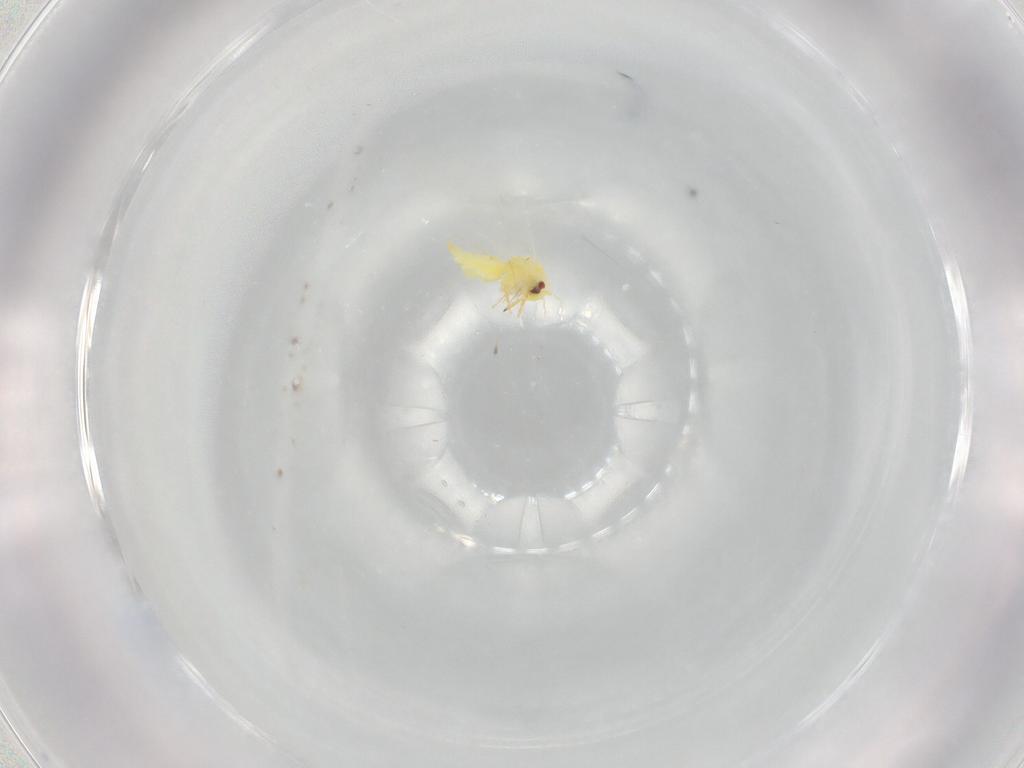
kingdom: Animalia
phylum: Arthropoda
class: Insecta
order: Hemiptera
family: Aleyrodidae
